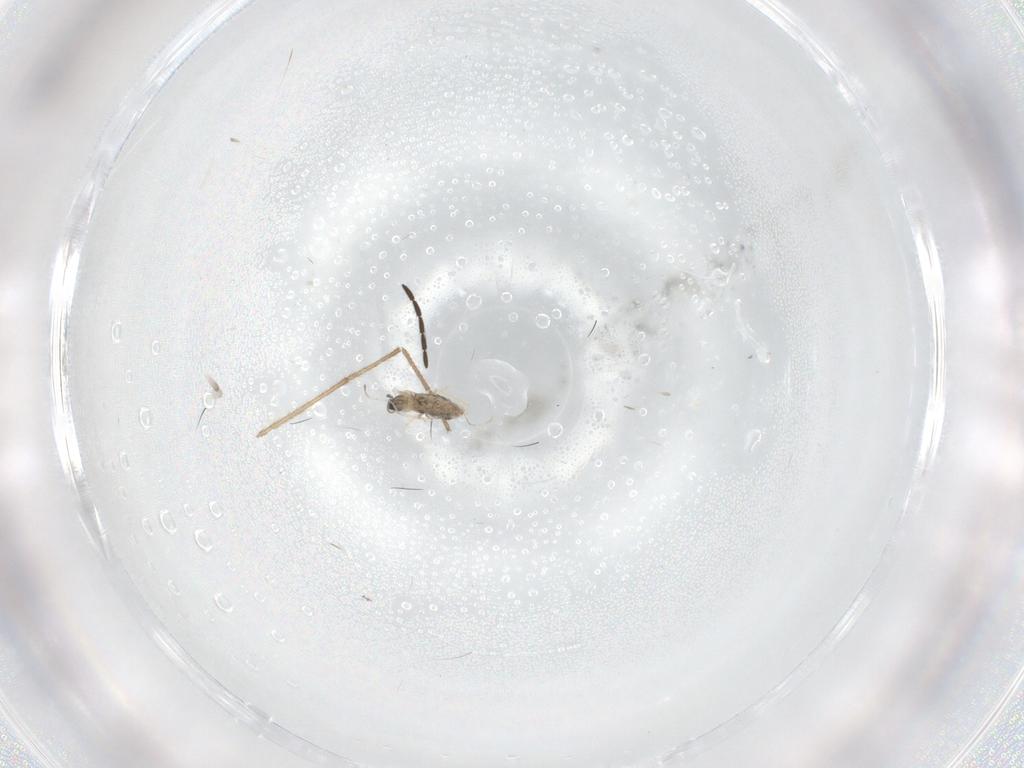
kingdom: Animalia
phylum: Arthropoda
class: Insecta
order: Diptera
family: Cecidomyiidae
